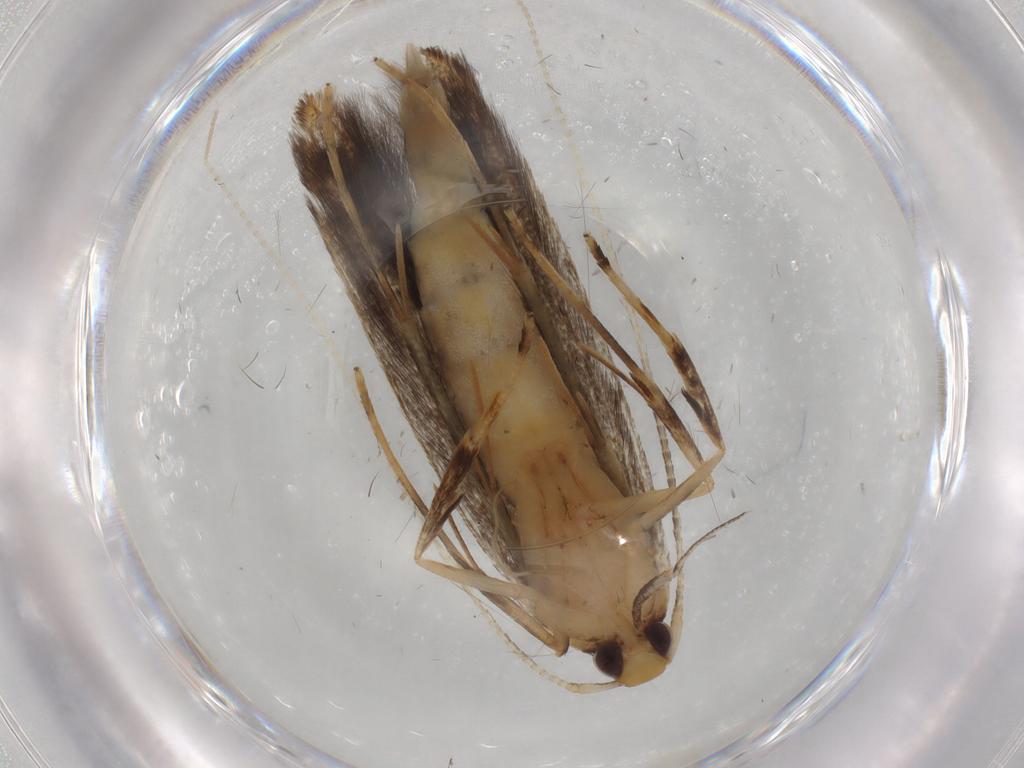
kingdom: Animalia
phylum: Arthropoda
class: Insecta
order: Lepidoptera
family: Pterolonchidae
